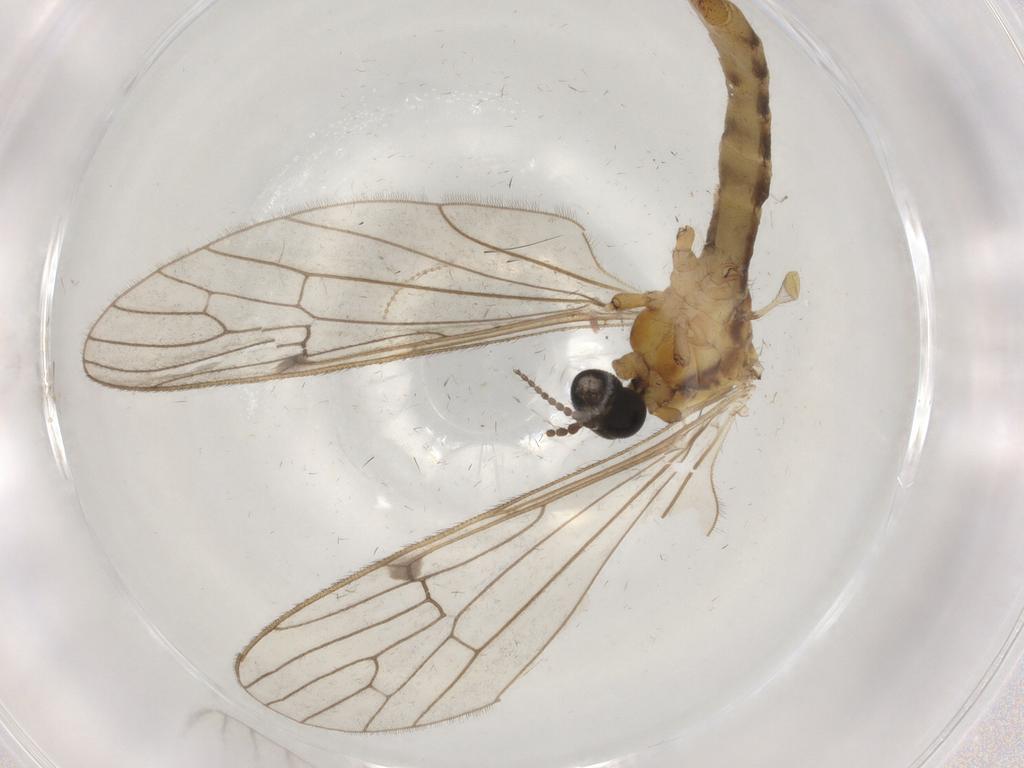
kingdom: Animalia
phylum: Arthropoda
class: Insecta
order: Diptera
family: Sciaridae
